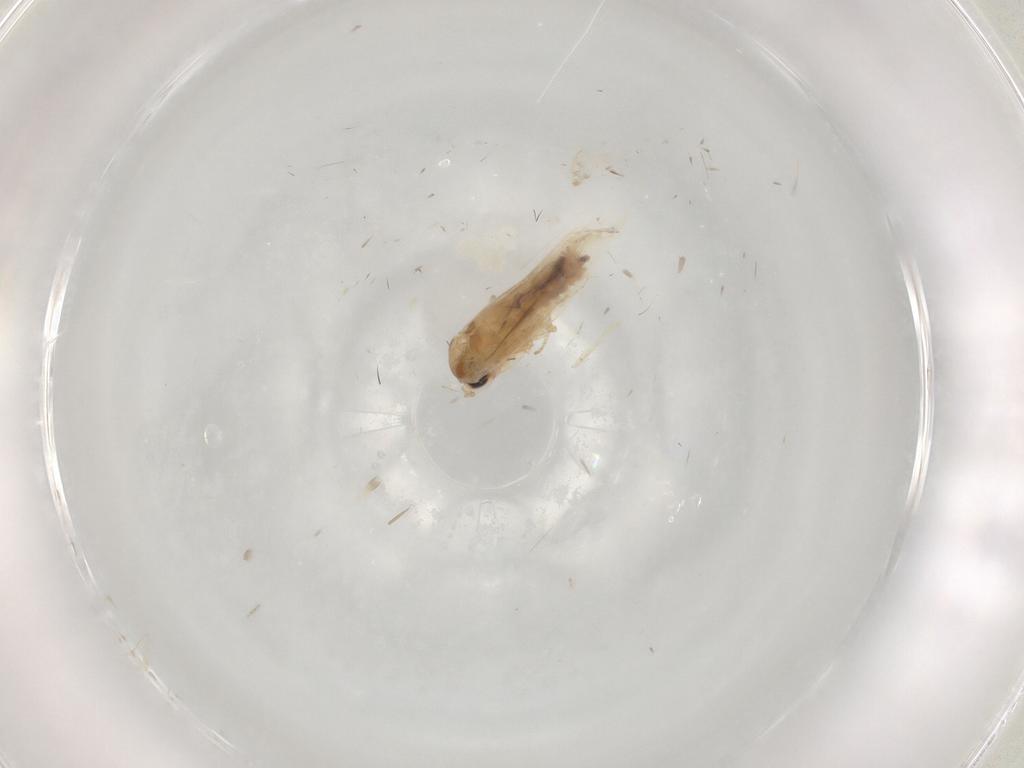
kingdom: Animalia
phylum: Arthropoda
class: Insecta
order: Lepidoptera
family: Bucculatricidae
